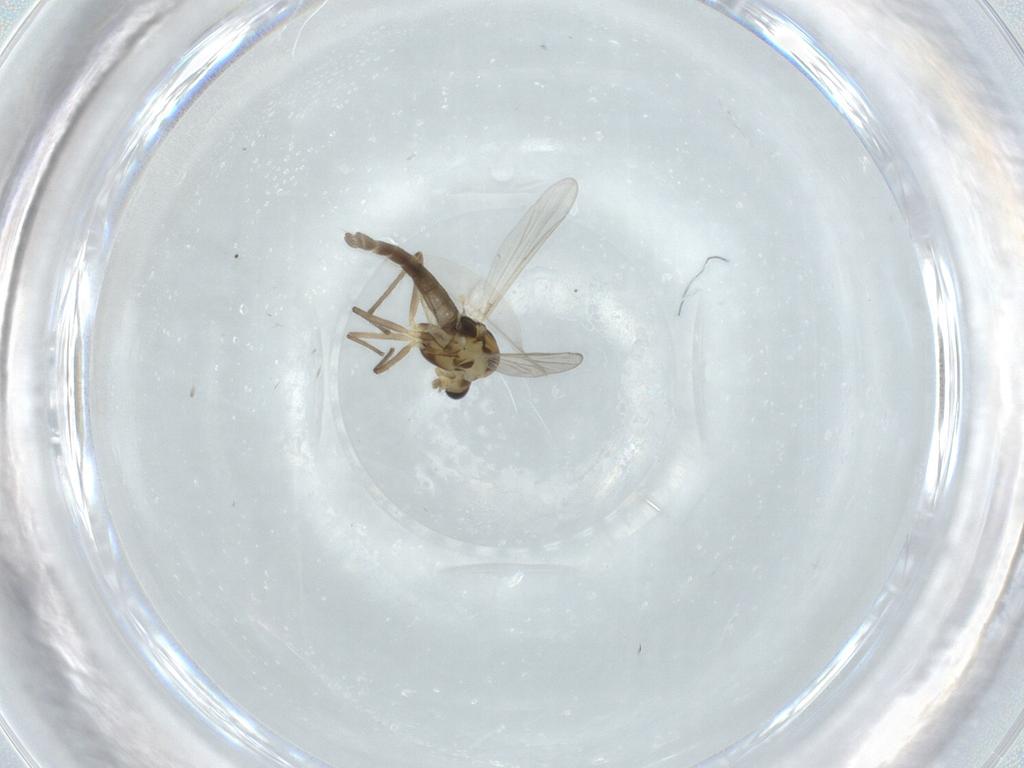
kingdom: Animalia
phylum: Arthropoda
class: Insecta
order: Diptera
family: Chironomidae
